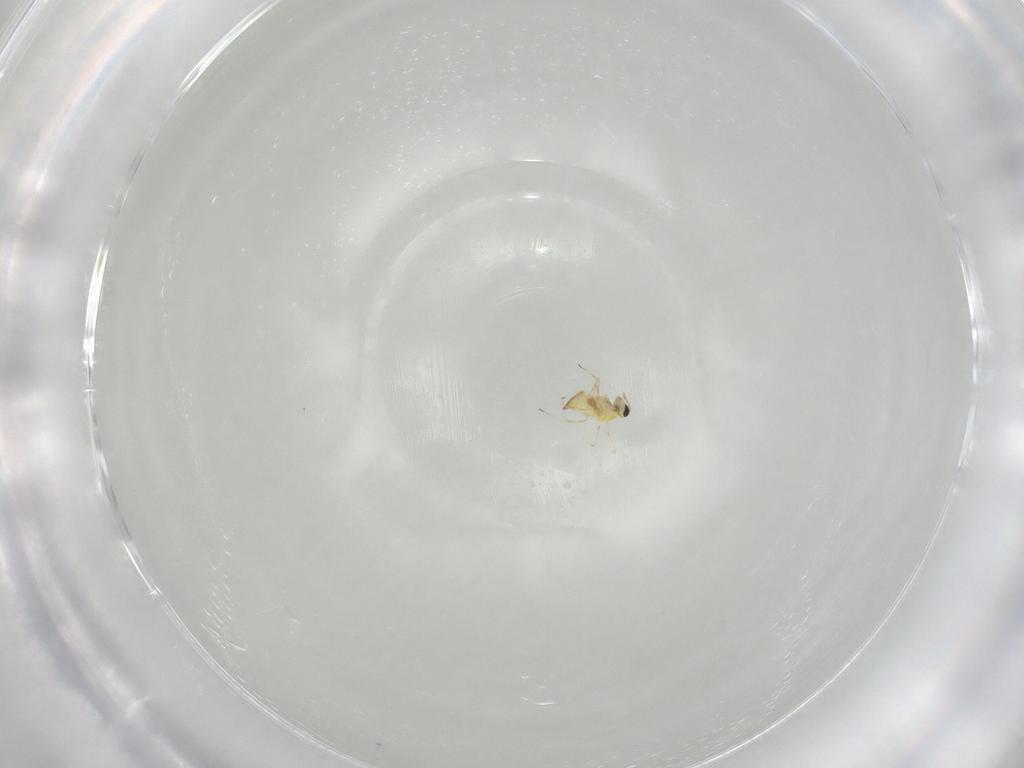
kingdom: Animalia
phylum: Arthropoda
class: Insecta
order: Hymenoptera
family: Trichogrammatidae
